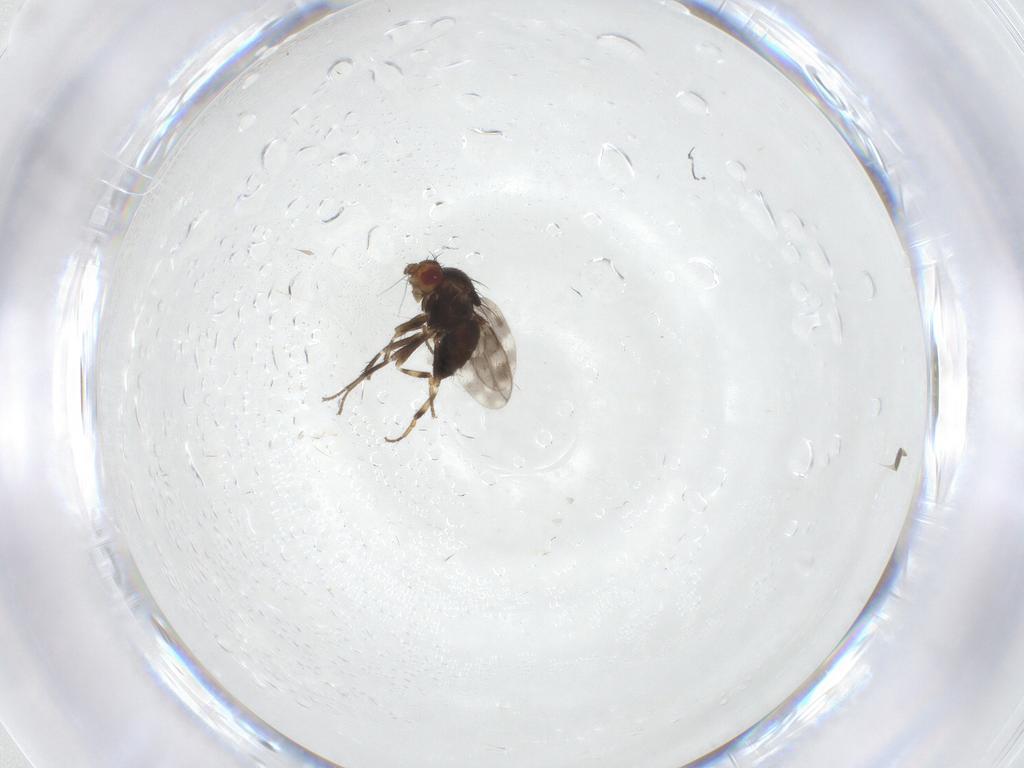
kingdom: Animalia
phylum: Arthropoda
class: Insecta
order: Diptera
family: Sphaeroceridae
